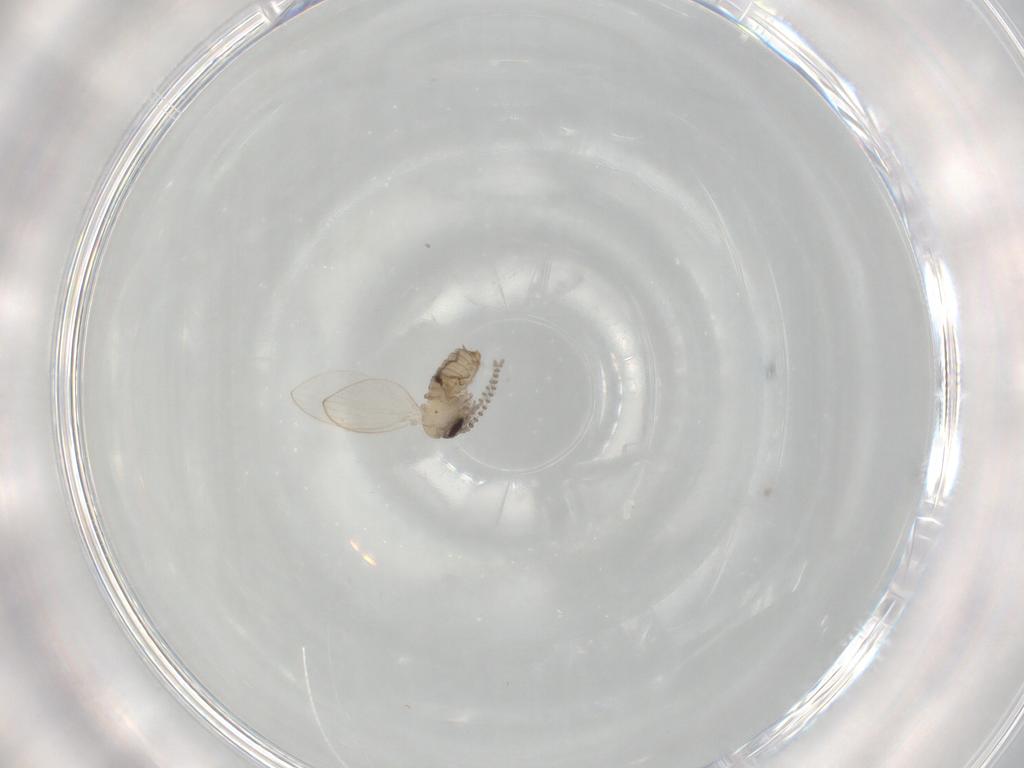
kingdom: Animalia
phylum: Arthropoda
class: Insecta
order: Diptera
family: Psychodidae
